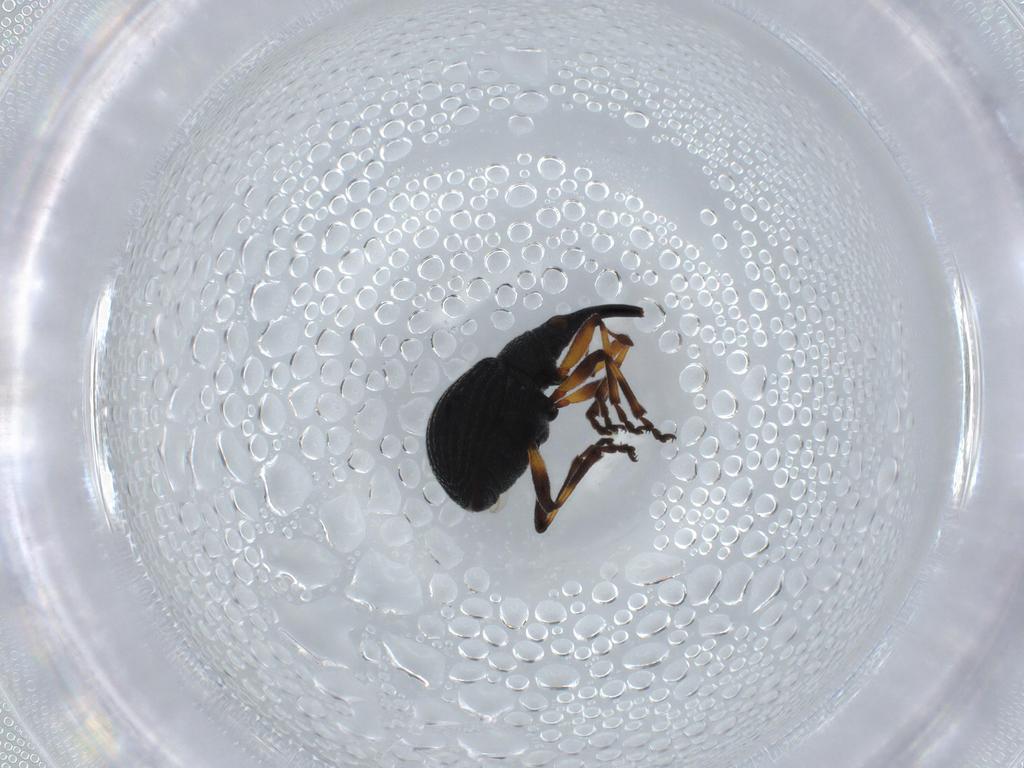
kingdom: Animalia
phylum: Arthropoda
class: Insecta
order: Coleoptera
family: Brentidae
